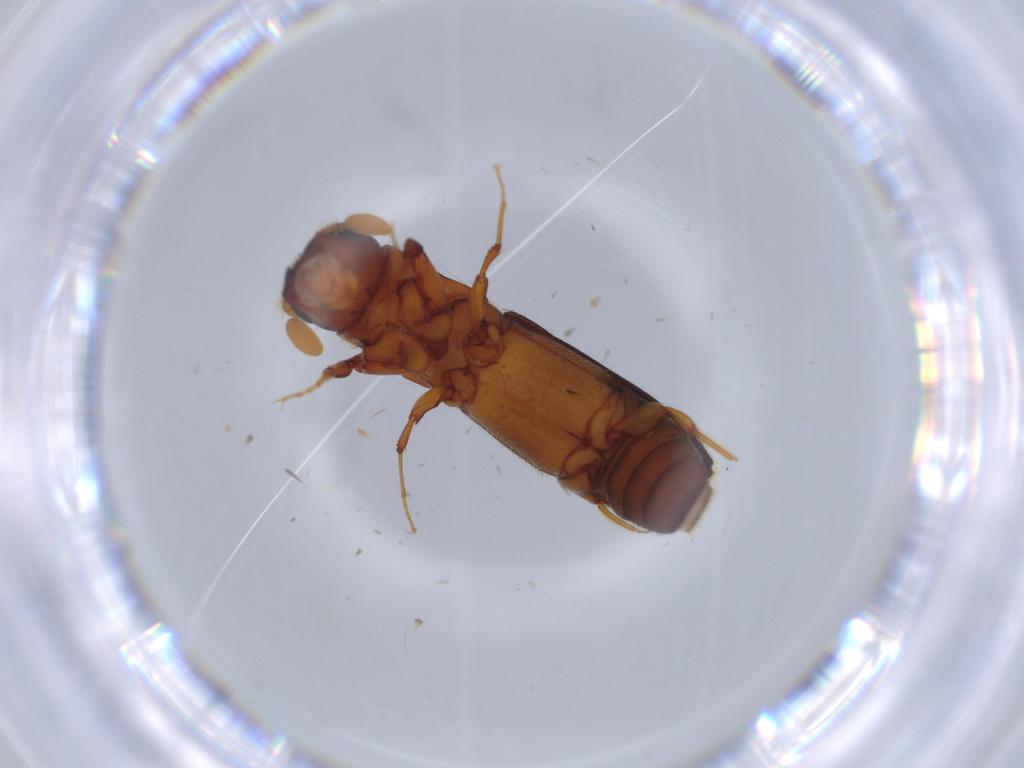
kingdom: Animalia
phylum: Arthropoda
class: Insecta
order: Coleoptera
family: Curculionidae
